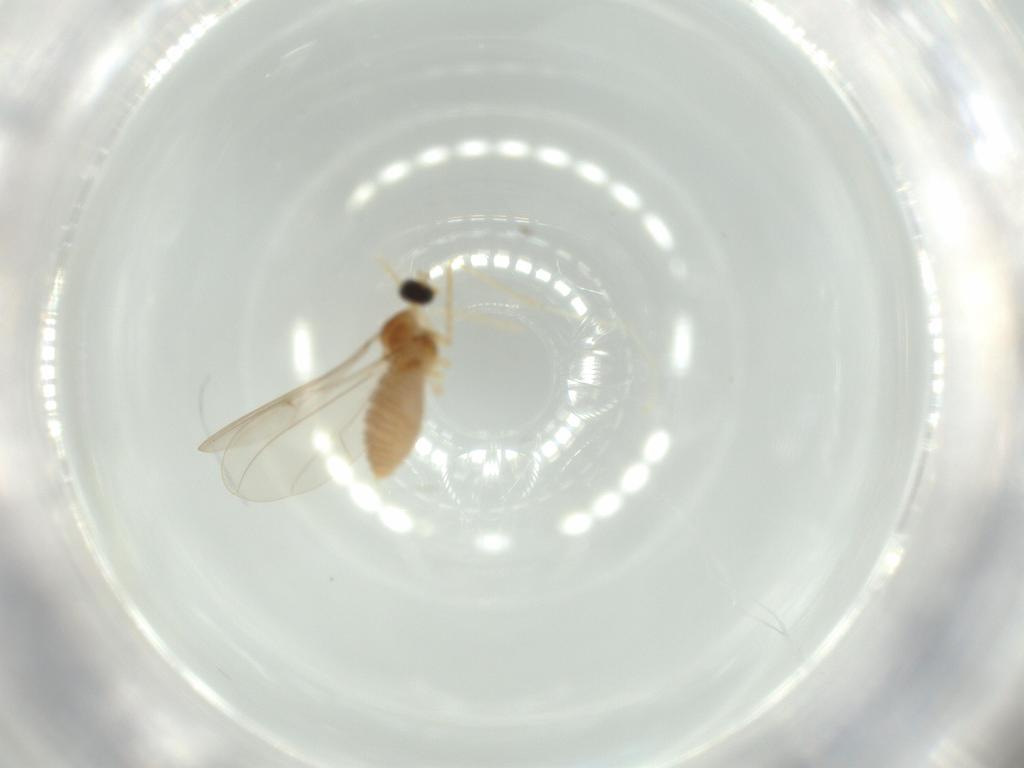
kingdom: Animalia
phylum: Arthropoda
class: Insecta
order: Diptera
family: Cecidomyiidae
